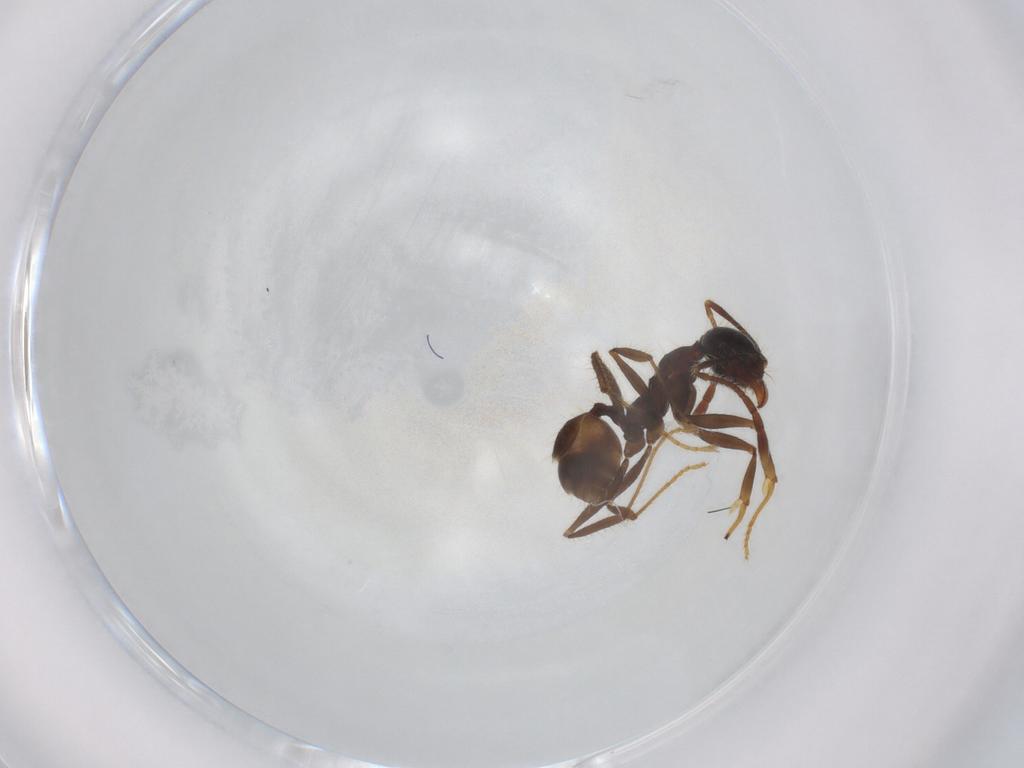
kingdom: Animalia
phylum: Arthropoda
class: Insecta
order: Hymenoptera
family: Formicidae
